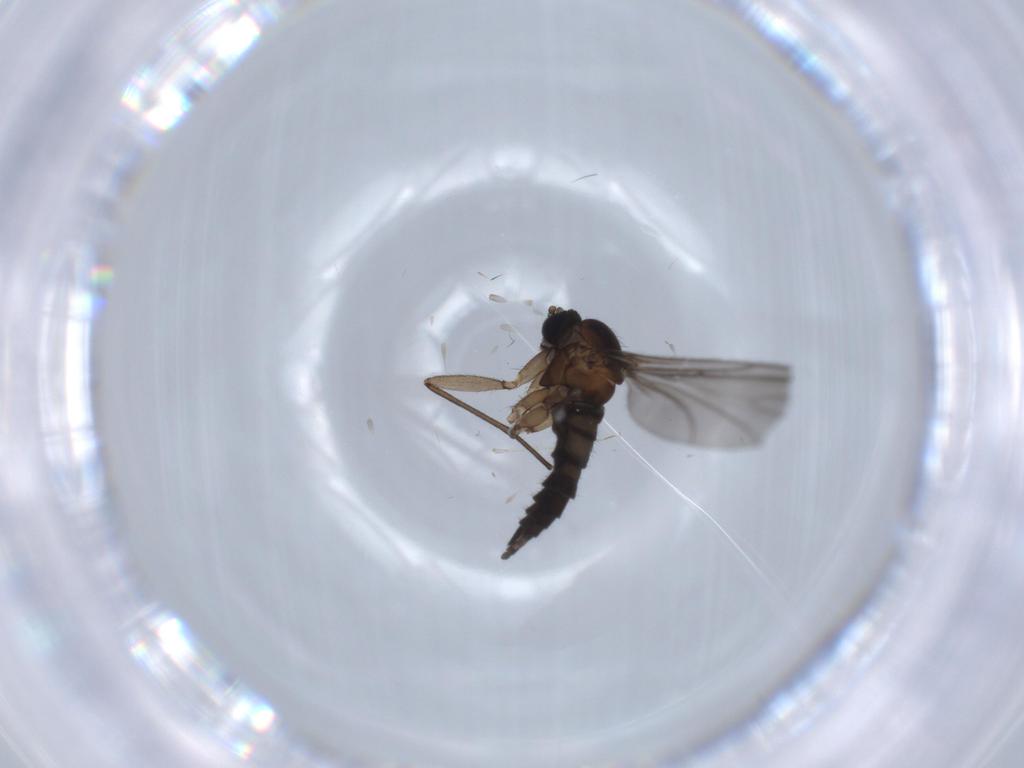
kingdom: Animalia
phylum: Arthropoda
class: Insecta
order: Diptera
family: Sciaridae
